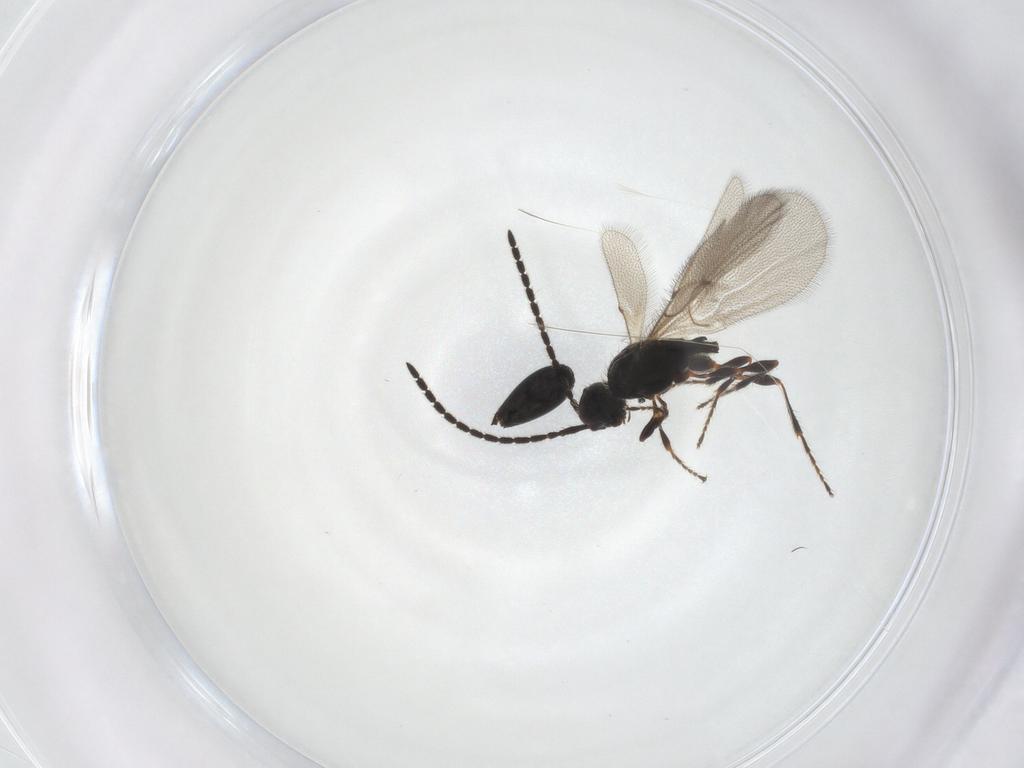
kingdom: Animalia
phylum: Arthropoda
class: Insecta
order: Hymenoptera
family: Diapriidae
